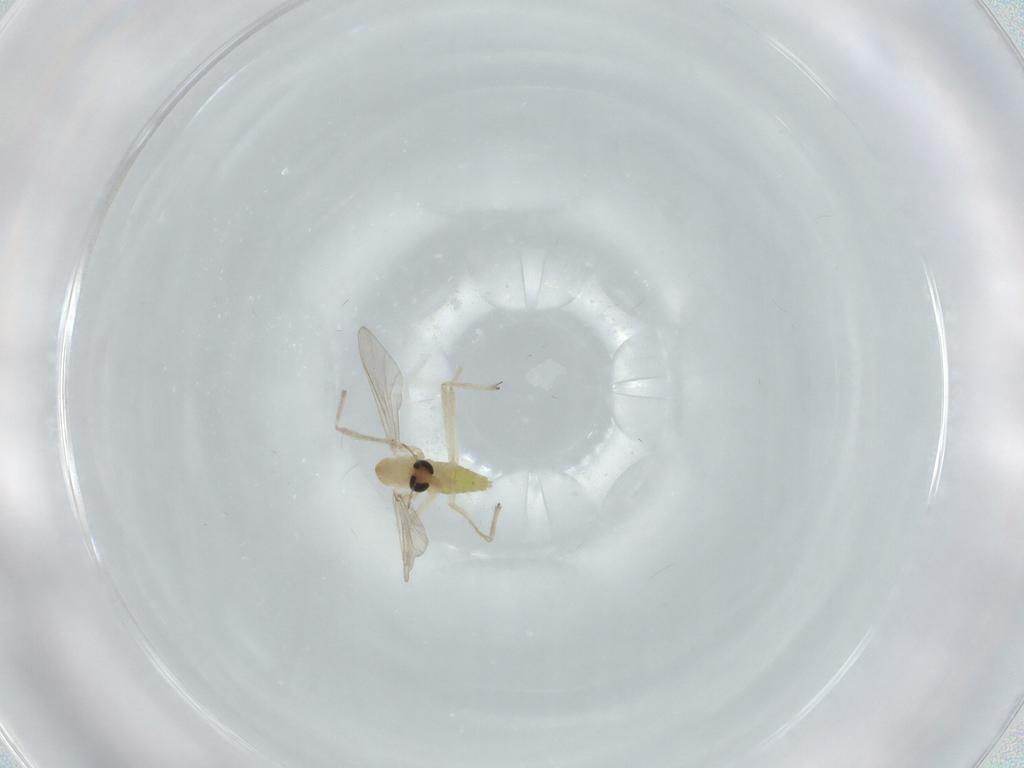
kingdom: Animalia
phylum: Arthropoda
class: Insecta
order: Diptera
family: Chironomidae
